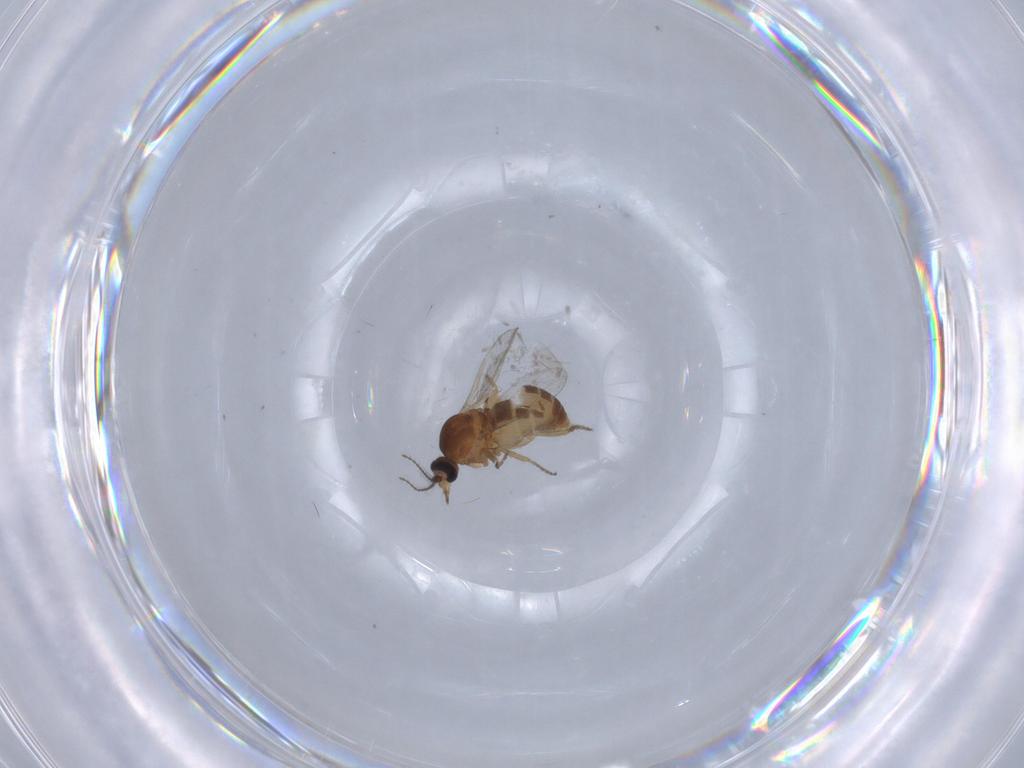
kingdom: Animalia
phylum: Arthropoda
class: Insecta
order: Diptera
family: Ceratopogonidae
